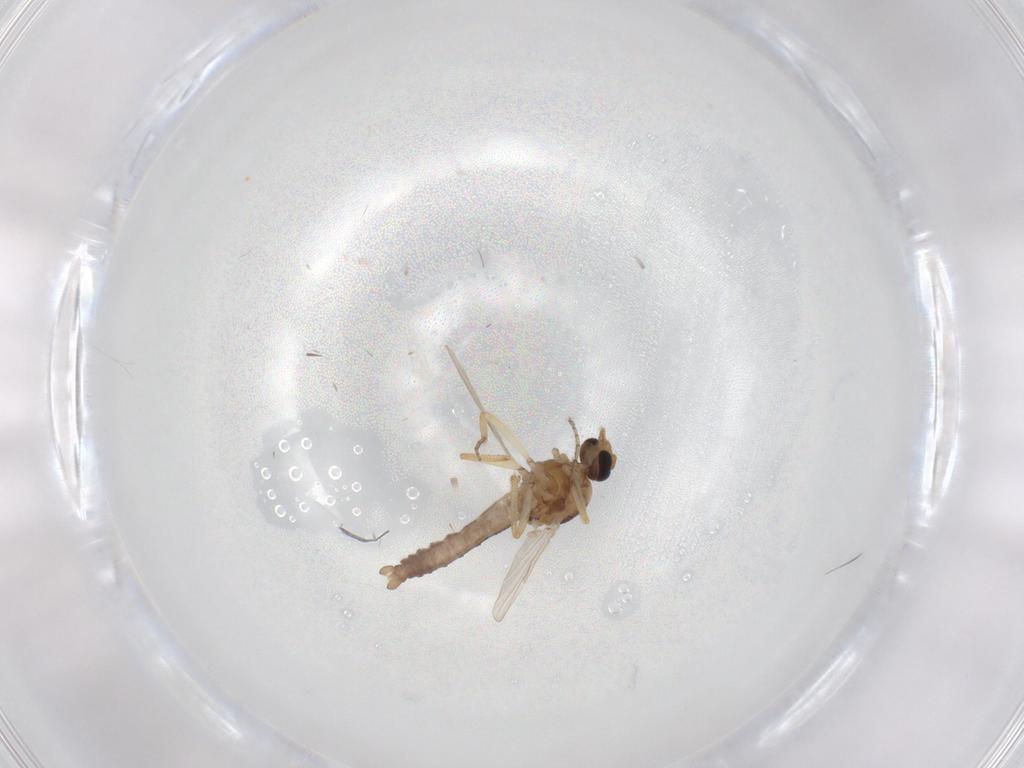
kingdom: Animalia
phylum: Arthropoda
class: Insecta
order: Diptera
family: Ceratopogonidae
